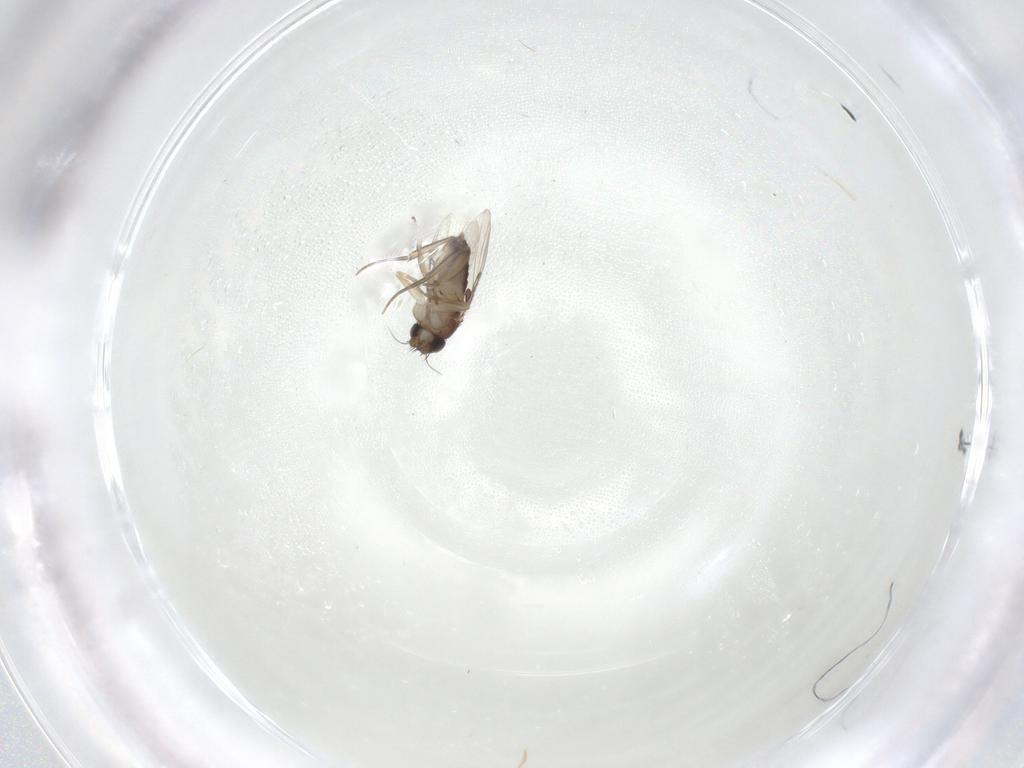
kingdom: Animalia
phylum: Arthropoda
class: Insecta
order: Diptera
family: Phoridae
